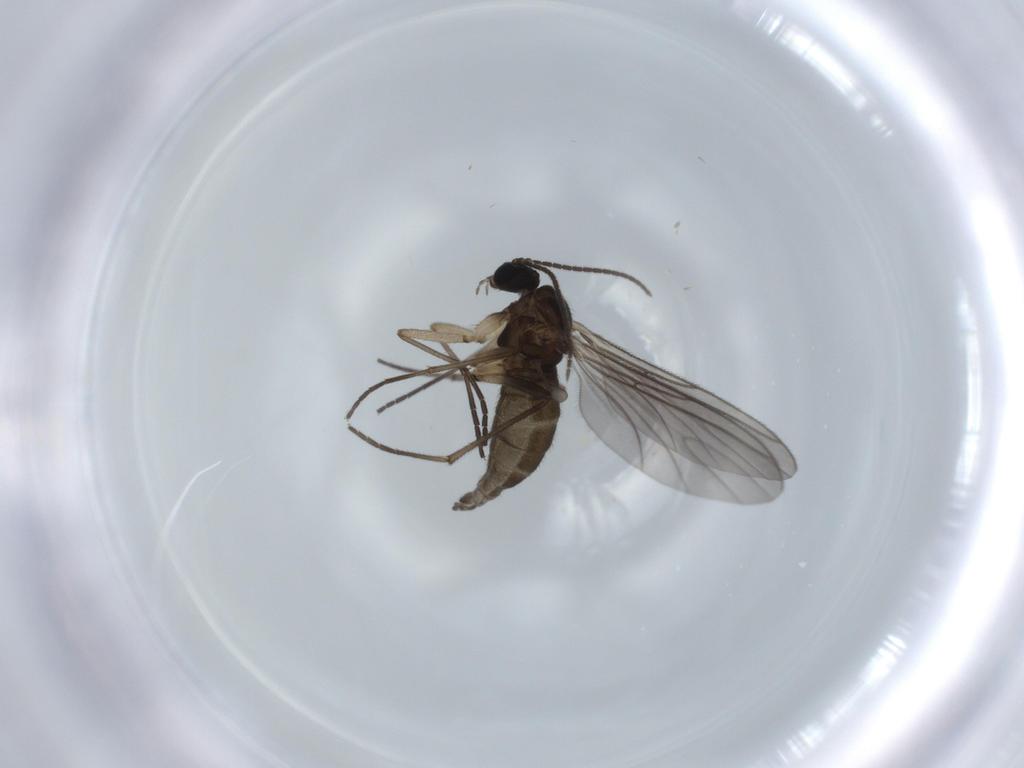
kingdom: Animalia
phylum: Arthropoda
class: Insecta
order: Diptera
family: Sciaridae
